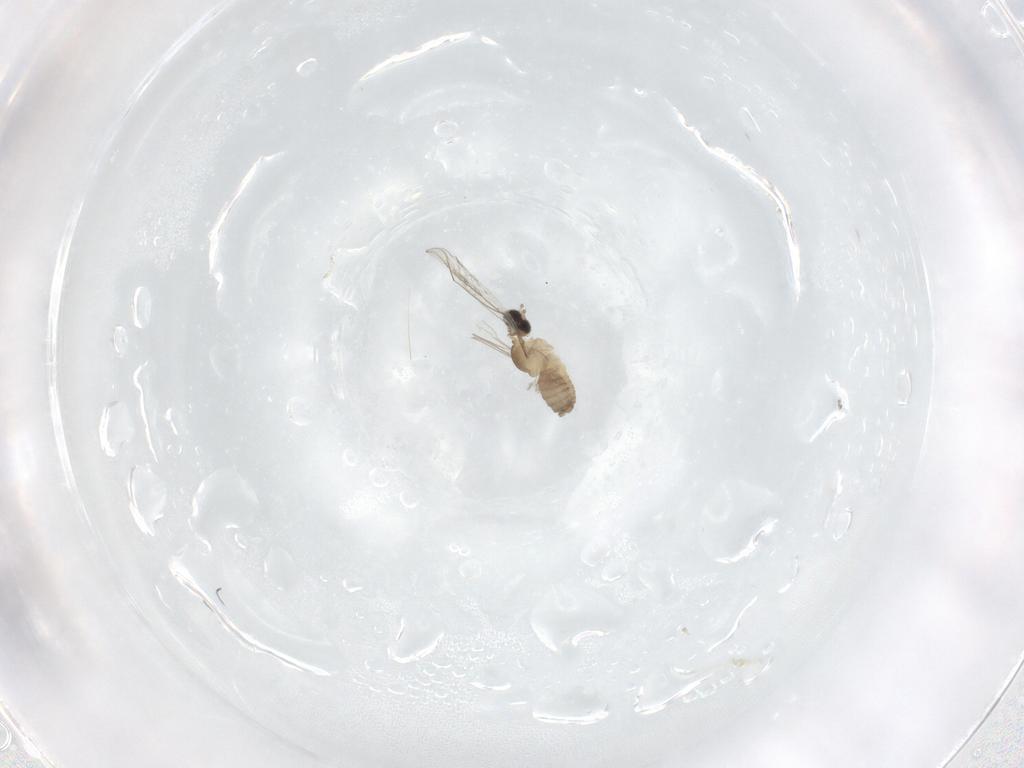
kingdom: Animalia
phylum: Arthropoda
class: Insecta
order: Diptera
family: Cecidomyiidae
